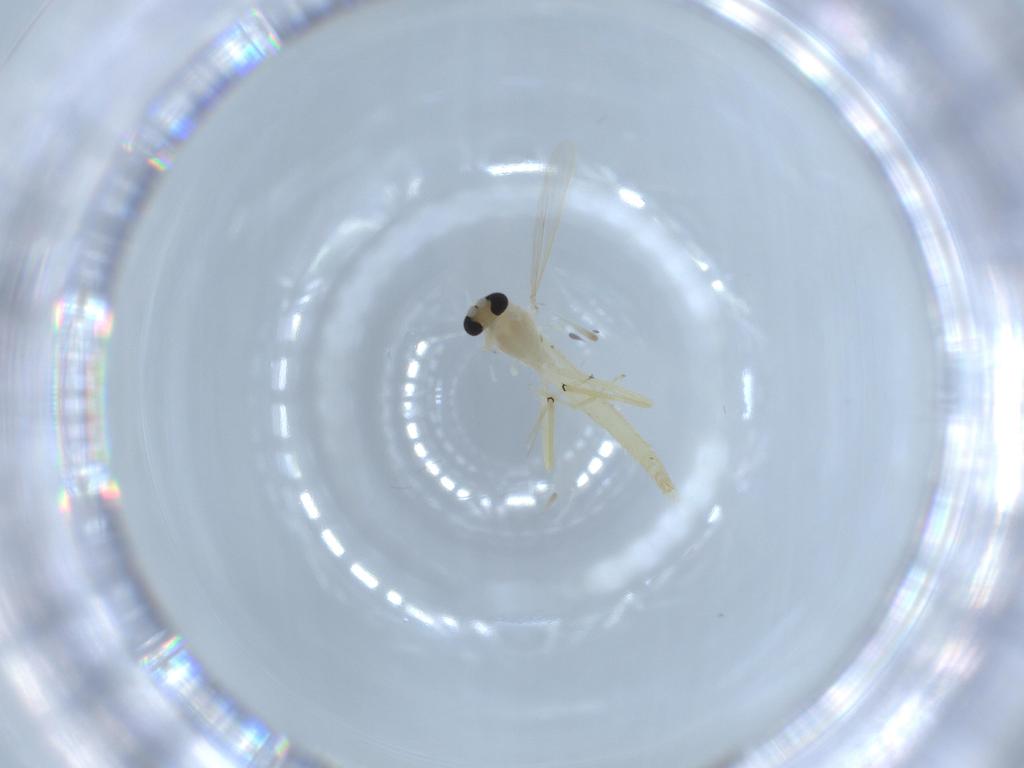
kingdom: Animalia
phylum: Arthropoda
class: Insecta
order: Diptera
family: Chironomidae
